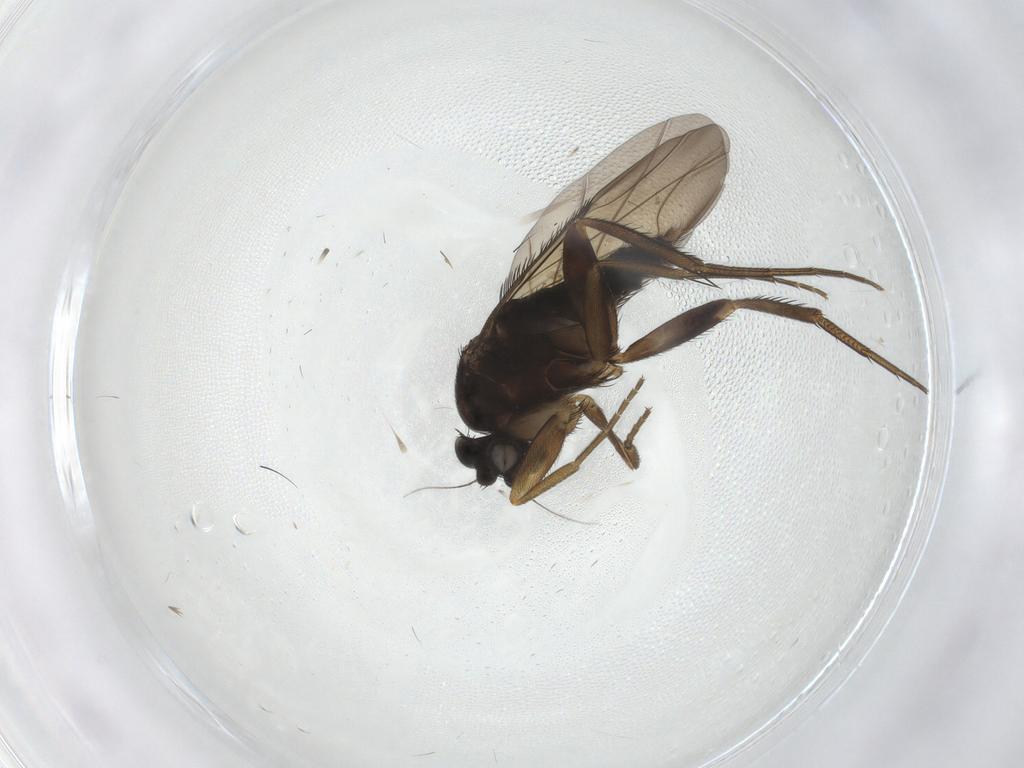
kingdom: Animalia
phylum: Arthropoda
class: Insecta
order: Diptera
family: Phoridae
